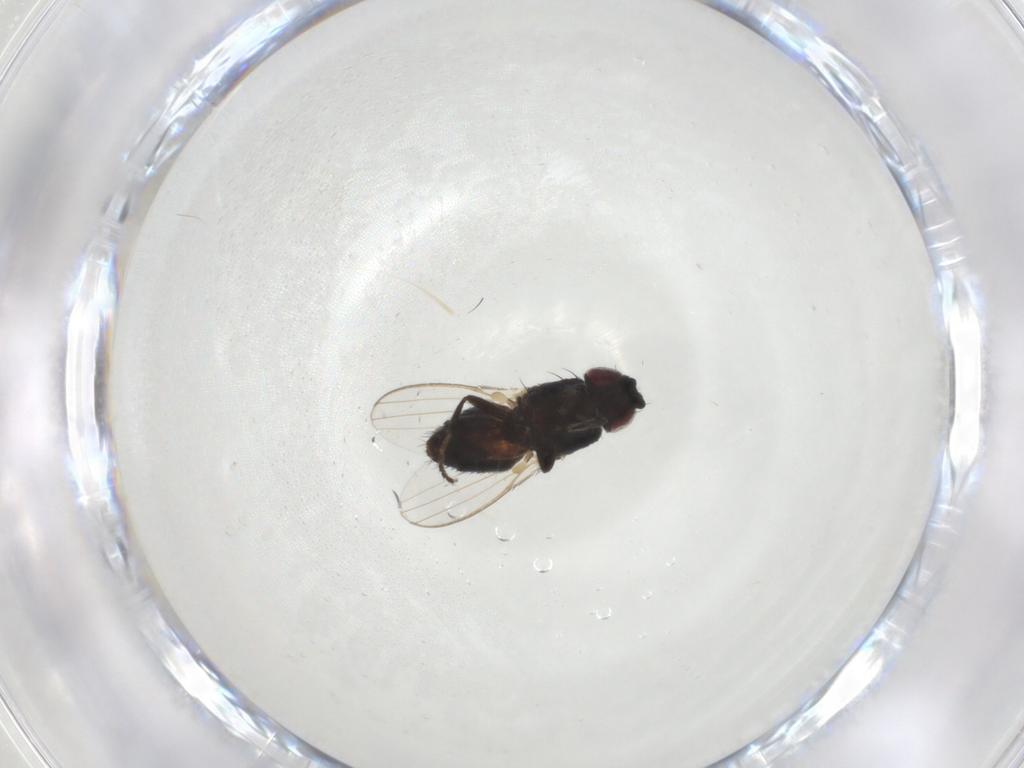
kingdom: Animalia
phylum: Arthropoda
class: Insecta
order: Diptera
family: Milichiidae
